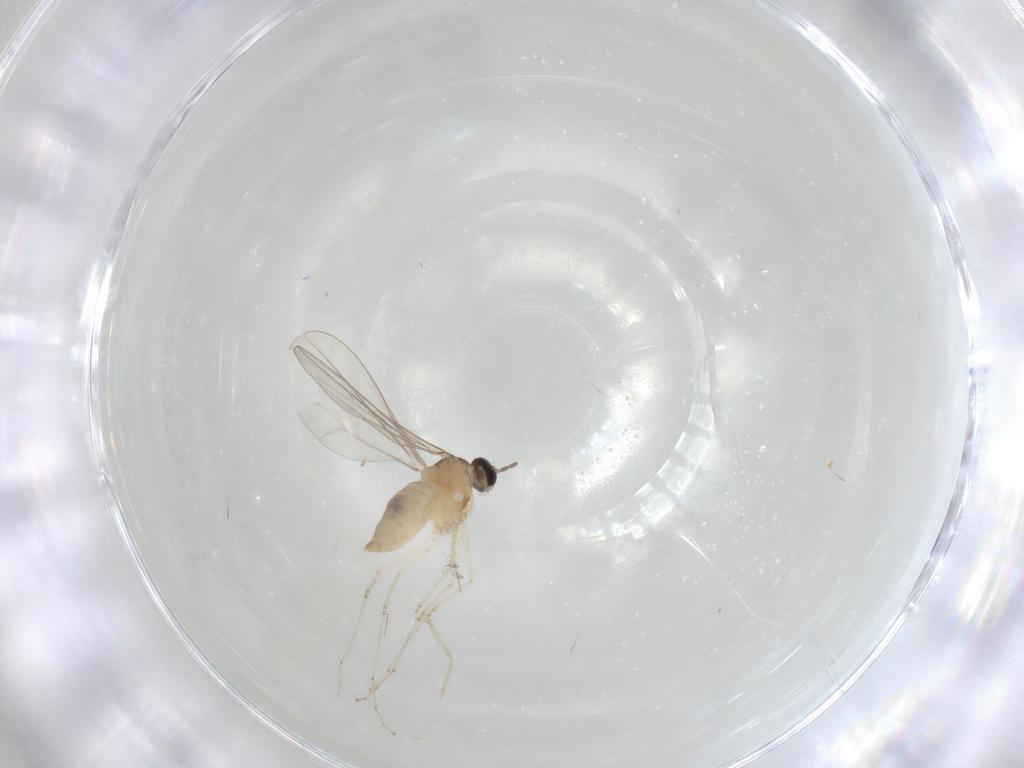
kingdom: Animalia
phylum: Arthropoda
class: Insecta
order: Diptera
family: Cecidomyiidae
